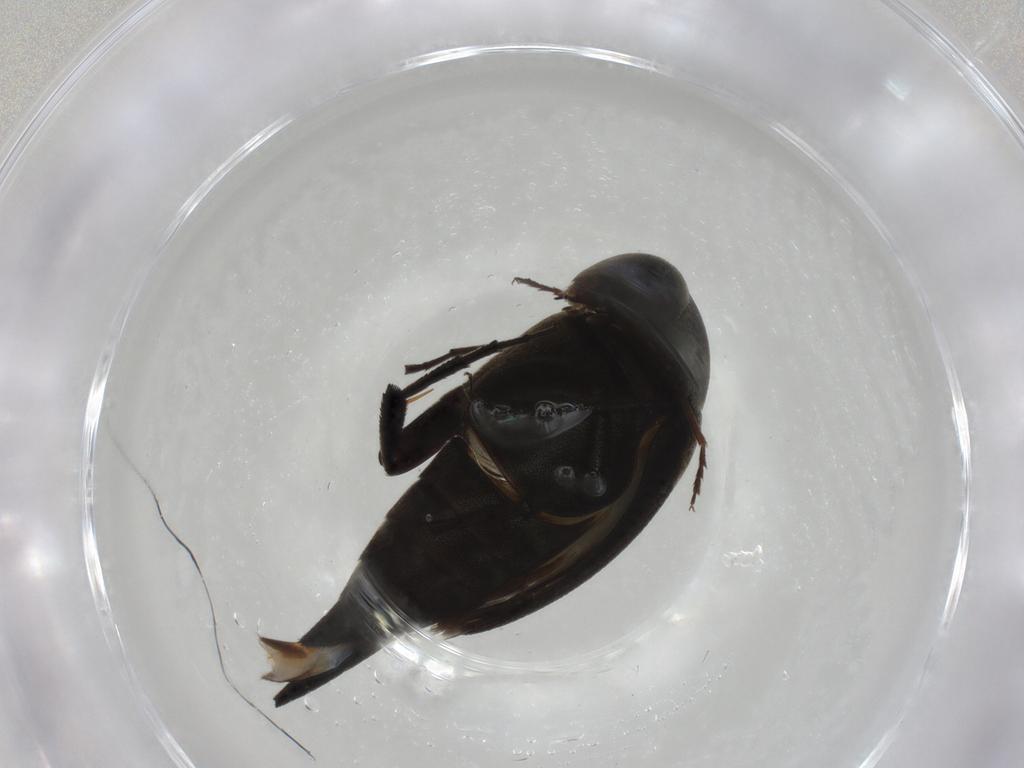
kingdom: Animalia
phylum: Arthropoda
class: Insecta
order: Coleoptera
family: Mordellidae
